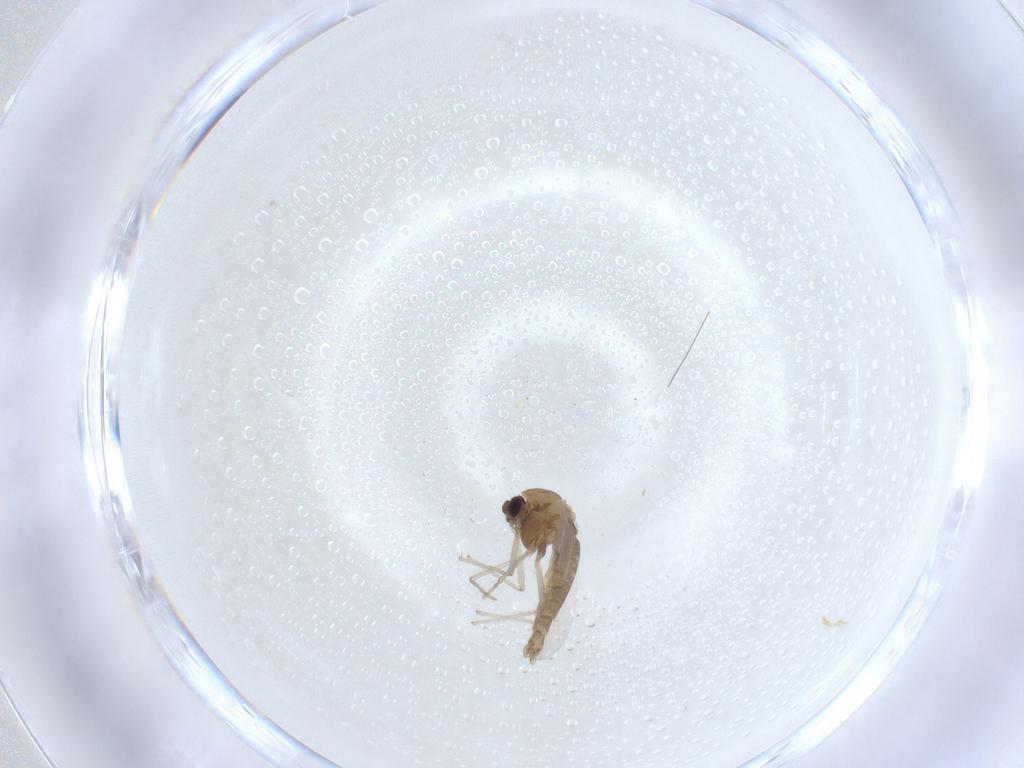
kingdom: Animalia
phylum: Arthropoda
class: Insecta
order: Diptera
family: Chironomidae
